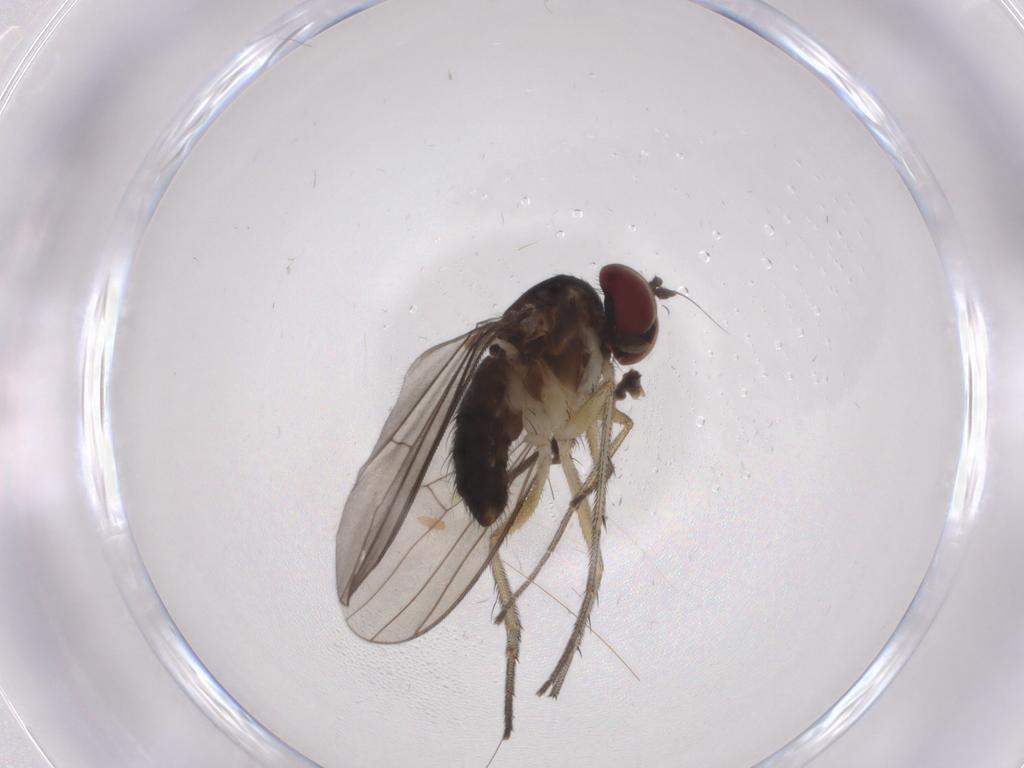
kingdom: Animalia
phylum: Arthropoda
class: Insecta
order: Diptera
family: Dolichopodidae
